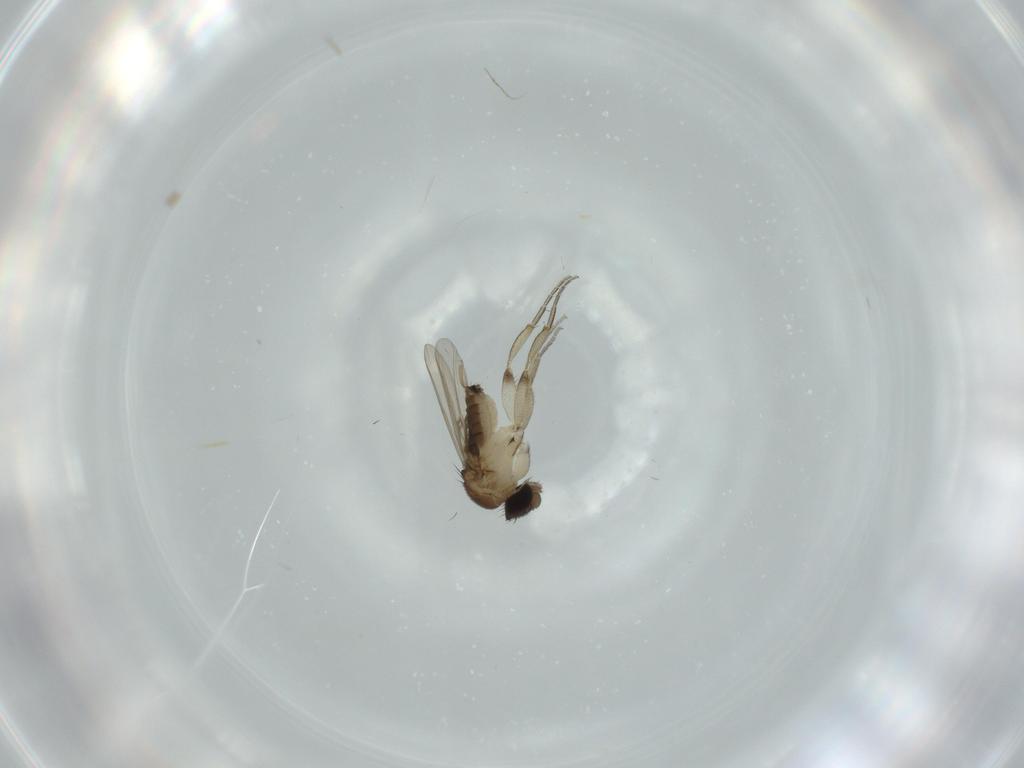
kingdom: Animalia
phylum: Arthropoda
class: Insecta
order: Diptera
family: Phoridae
